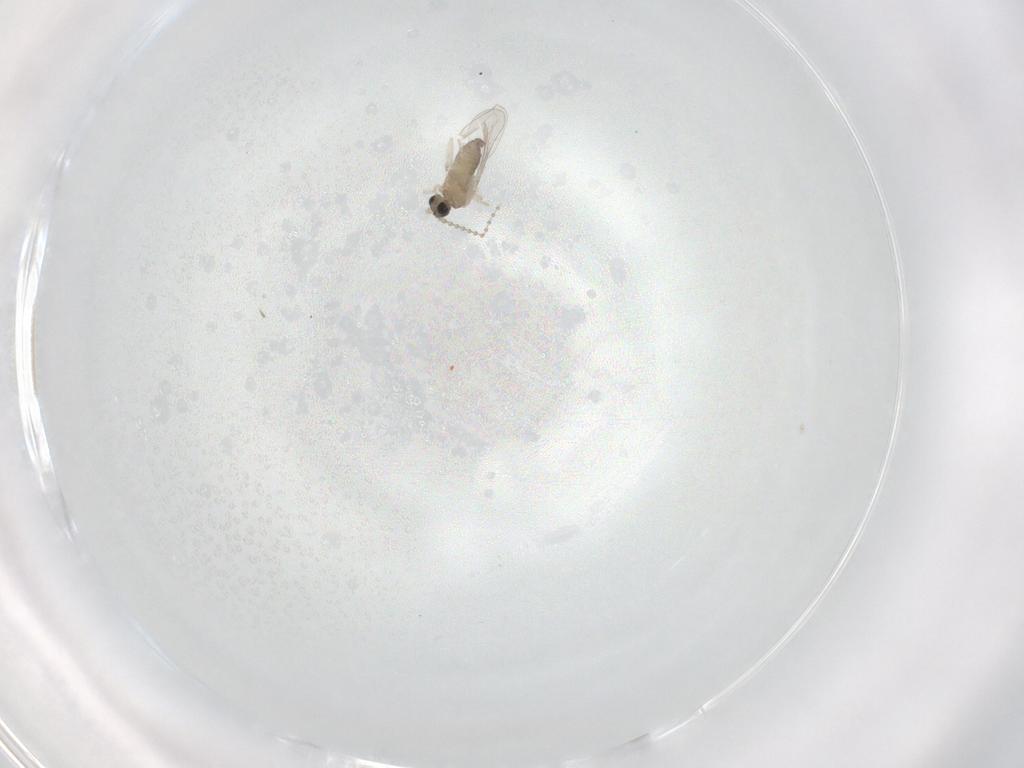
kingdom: Animalia
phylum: Arthropoda
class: Insecta
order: Diptera
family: Cecidomyiidae
